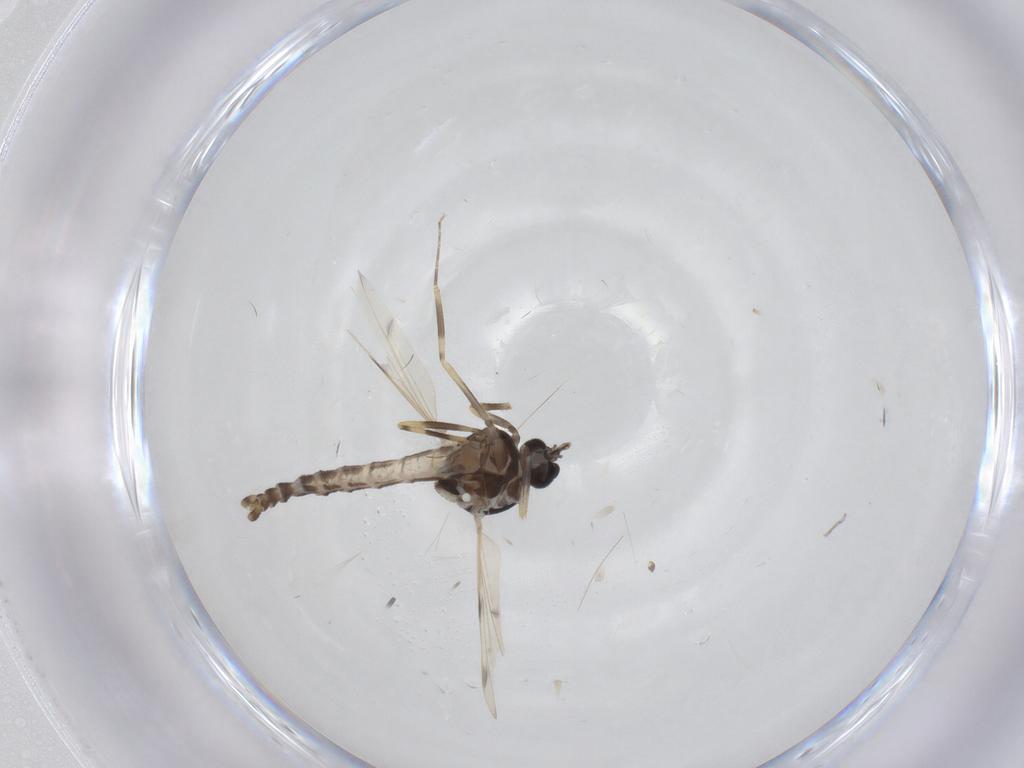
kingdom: Animalia
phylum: Arthropoda
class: Insecta
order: Diptera
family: Ceratopogonidae
